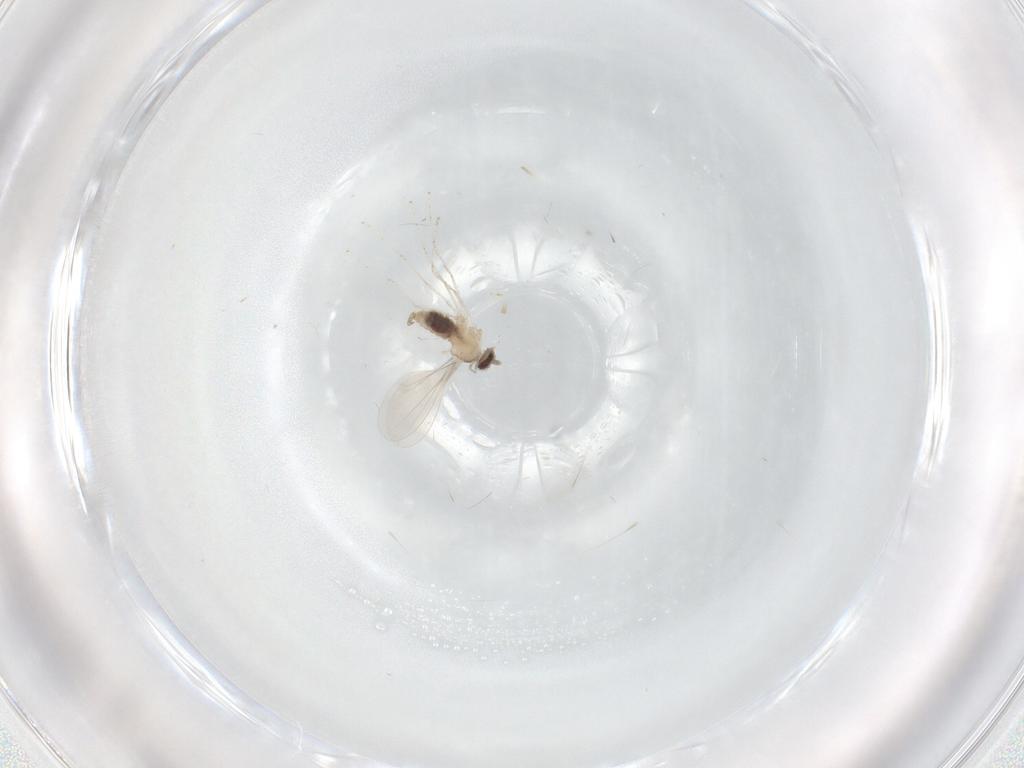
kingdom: Animalia
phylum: Arthropoda
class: Insecta
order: Diptera
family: Cecidomyiidae
